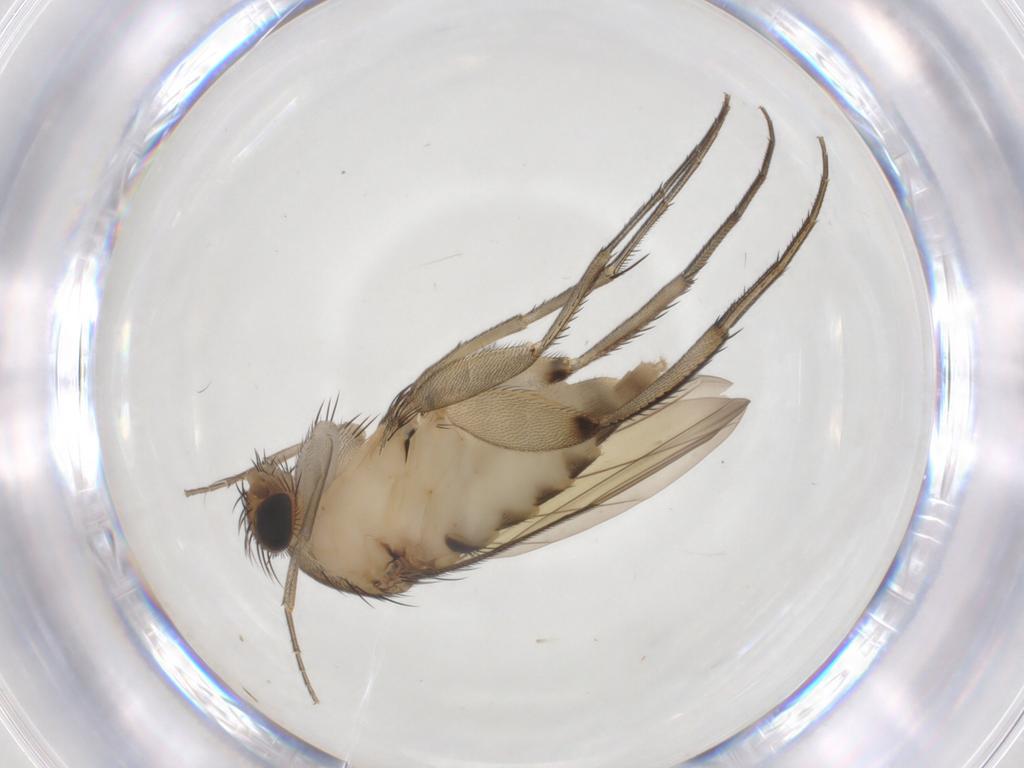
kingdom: Animalia
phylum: Arthropoda
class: Insecta
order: Diptera
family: Phoridae
